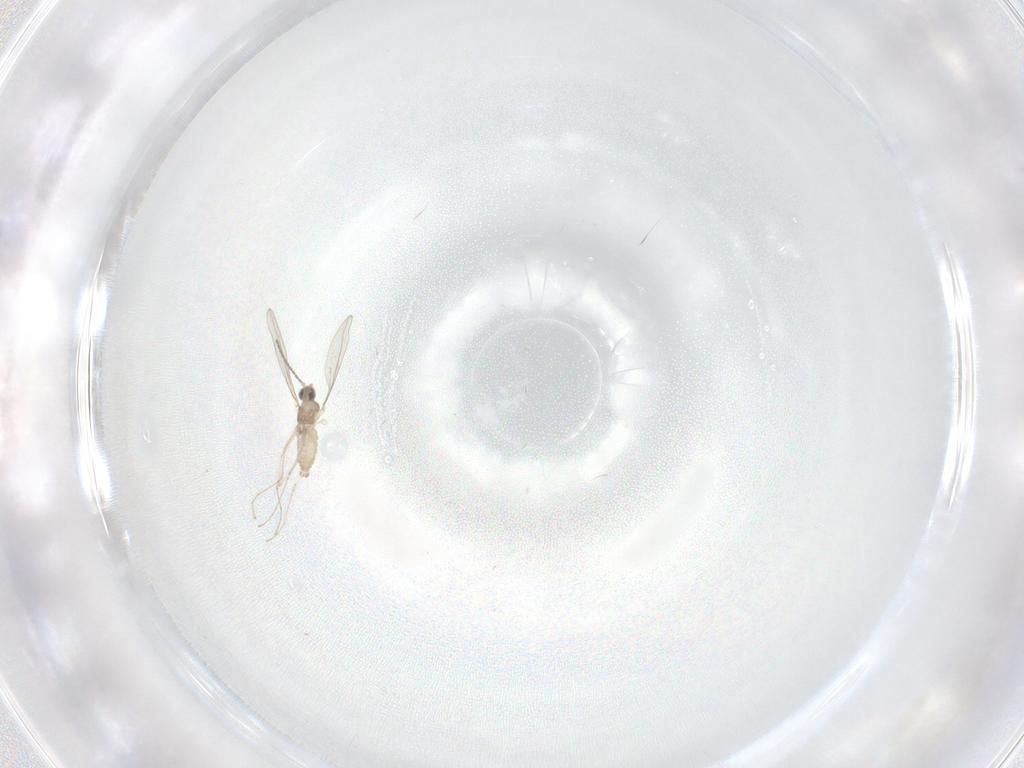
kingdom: Animalia
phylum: Arthropoda
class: Insecta
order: Diptera
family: Cecidomyiidae
